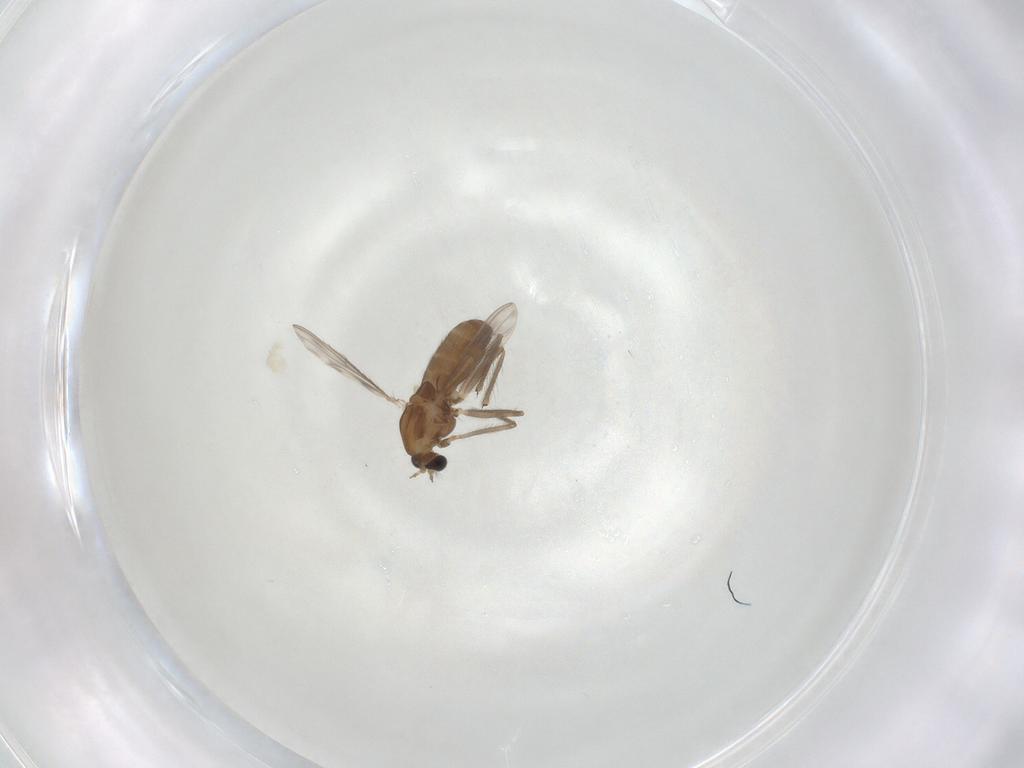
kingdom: Animalia
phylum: Arthropoda
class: Insecta
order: Diptera
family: Chironomidae
